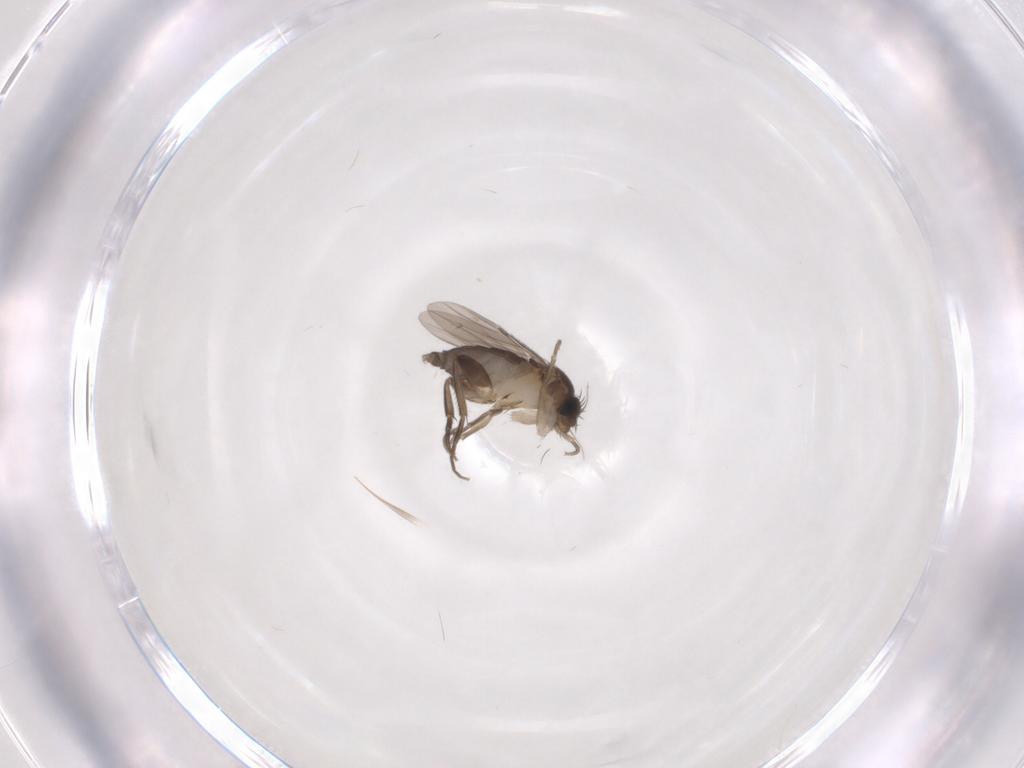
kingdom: Animalia
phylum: Arthropoda
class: Insecta
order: Diptera
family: Phoridae
